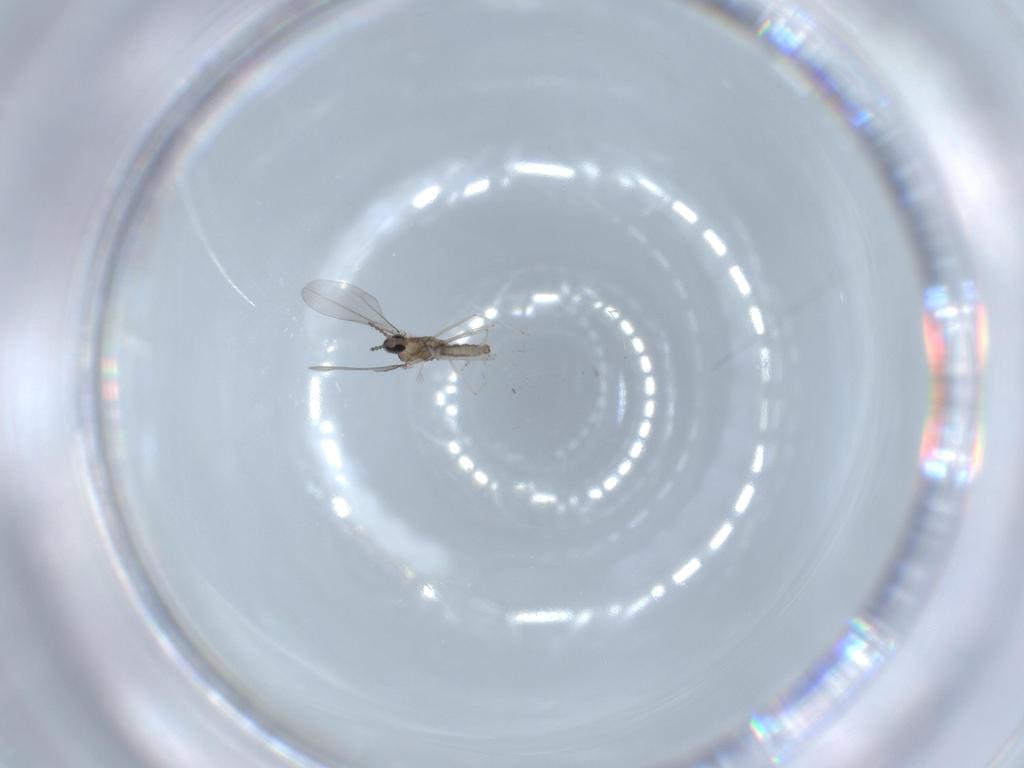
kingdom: Animalia
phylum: Arthropoda
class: Insecta
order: Diptera
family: Cecidomyiidae
